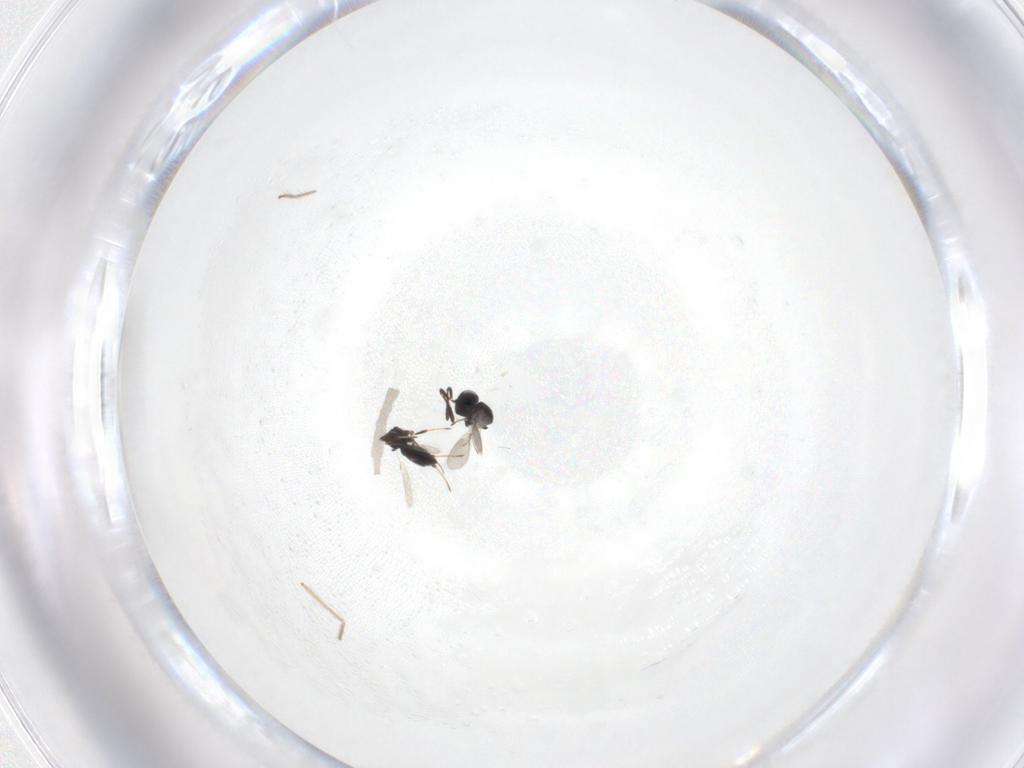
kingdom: Animalia
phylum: Arthropoda
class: Insecta
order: Hymenoptera
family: Scelionidae
